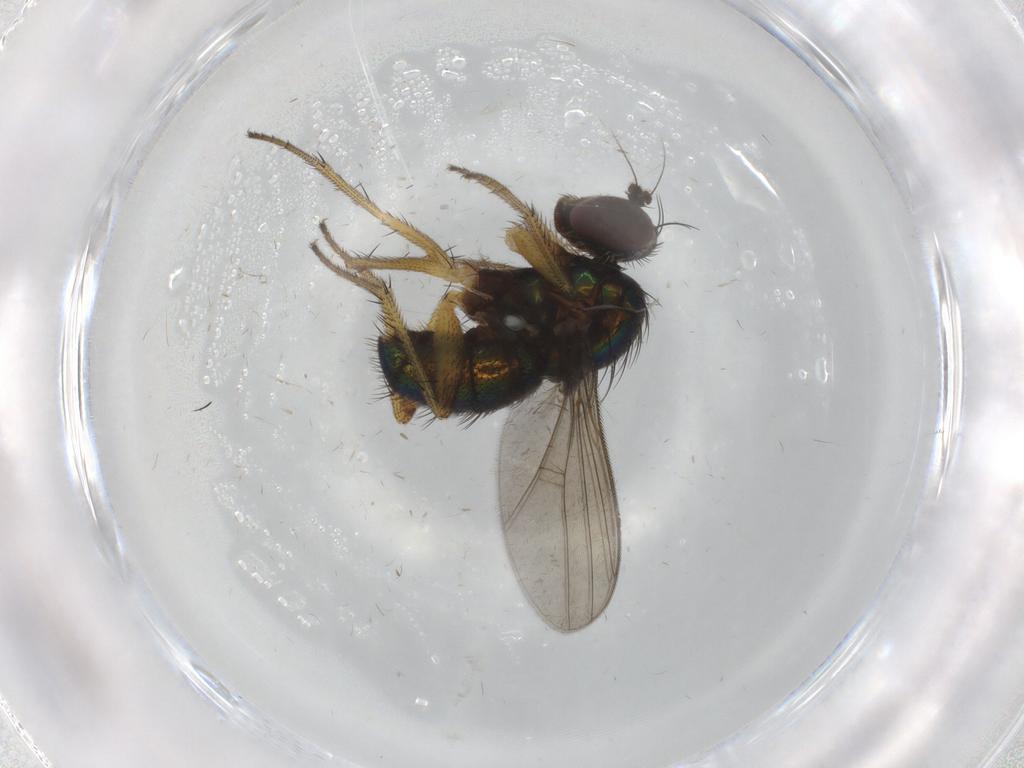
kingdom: Animalia
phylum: Arthropoda
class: Insecta
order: Diptera
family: Dolichopodidae
